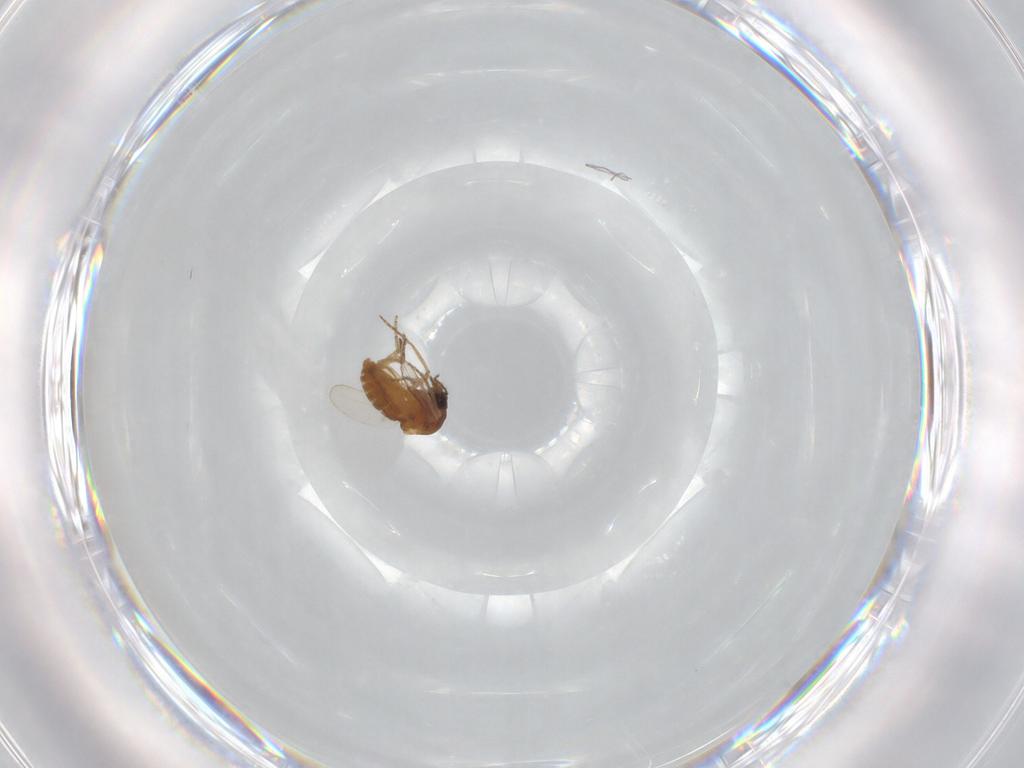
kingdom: Animalia
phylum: Arthropoda
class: Insecta
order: Diptera
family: Ceratopogonidae
